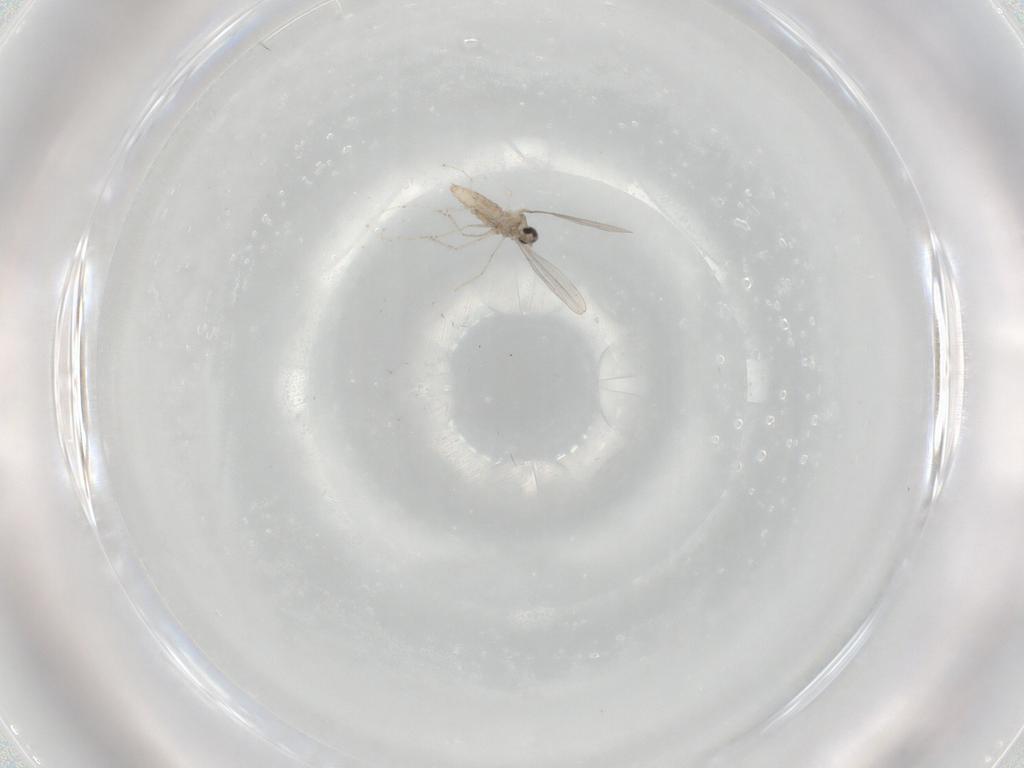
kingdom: Animalia
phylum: Arthropoda
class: Insecta
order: Diptera
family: Cecidomyiidae
